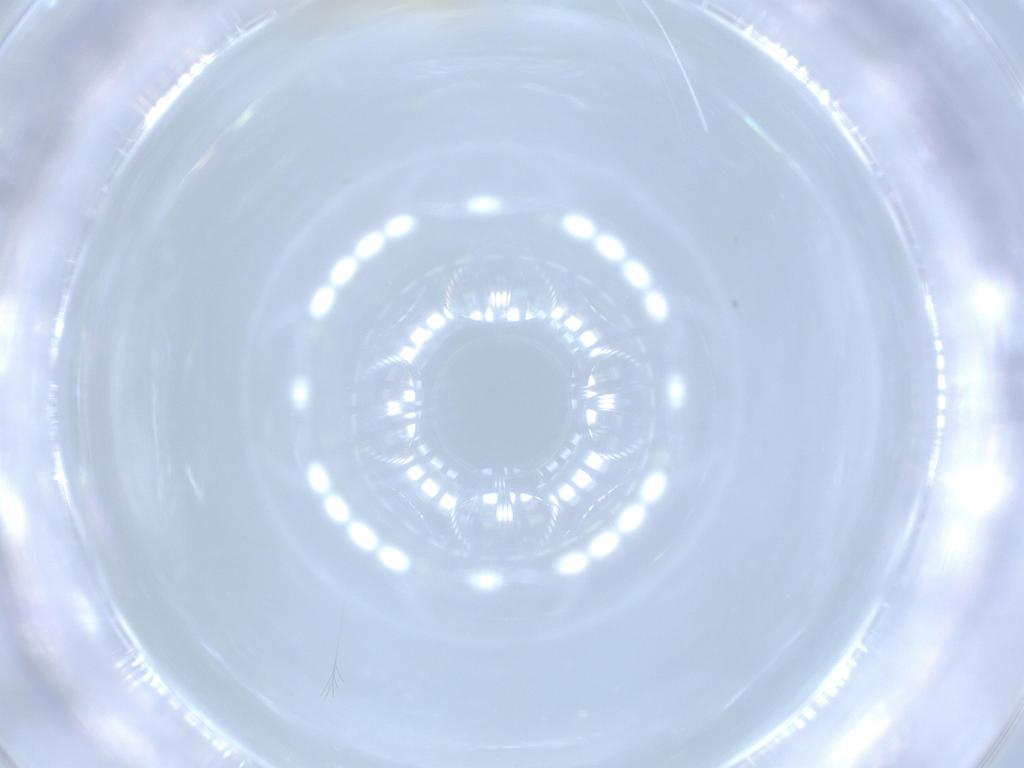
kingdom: Animalia
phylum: Arthropoda
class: Insecta
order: Neuroptera
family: Coniopterygidae
